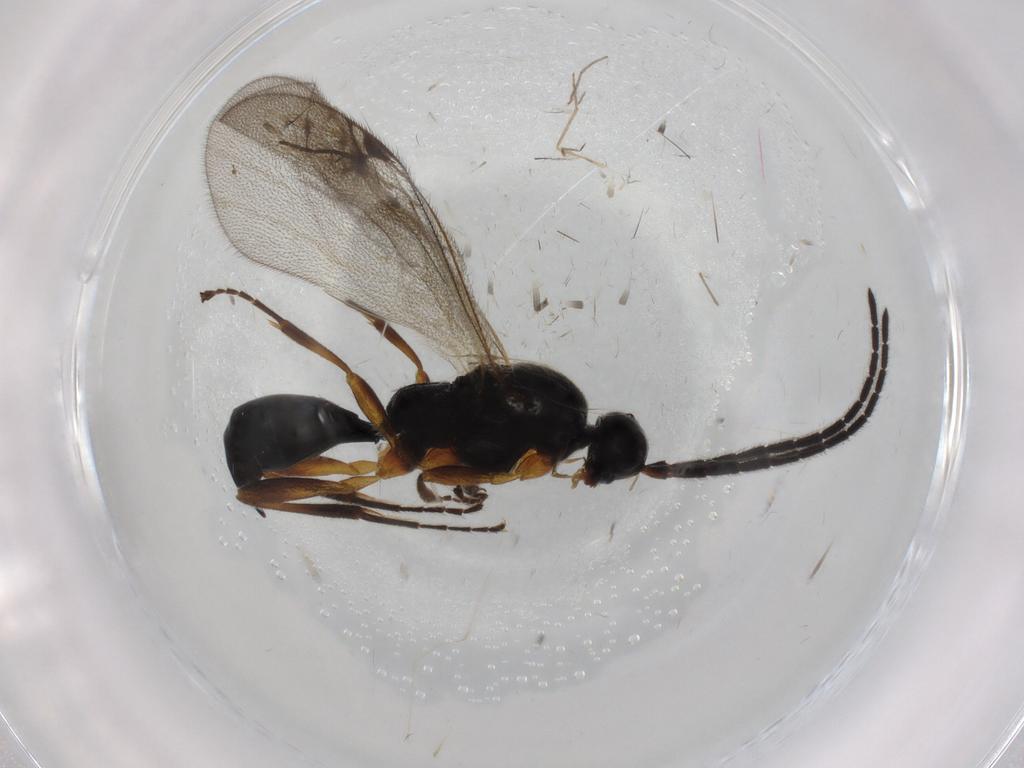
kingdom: Animalia
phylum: Arthropoda
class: Insecta
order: Hymenoptera
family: Proctotrupidae
